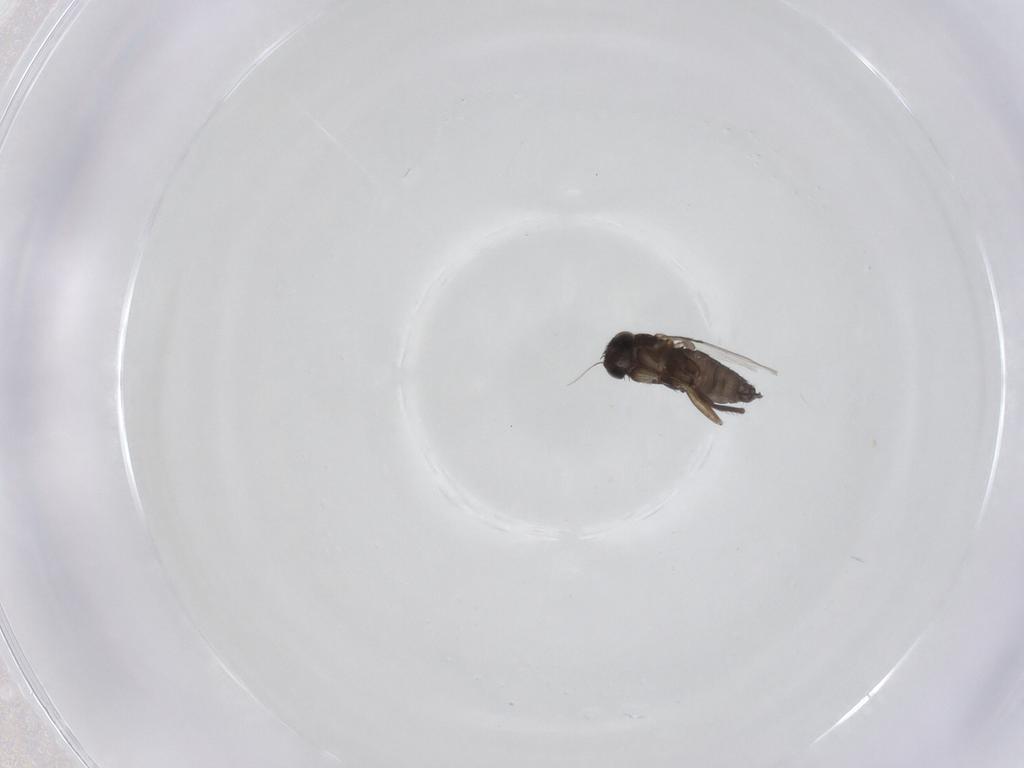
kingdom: Animalia
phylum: Arthropoda
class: Insecta
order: Diptera
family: Phoridae
